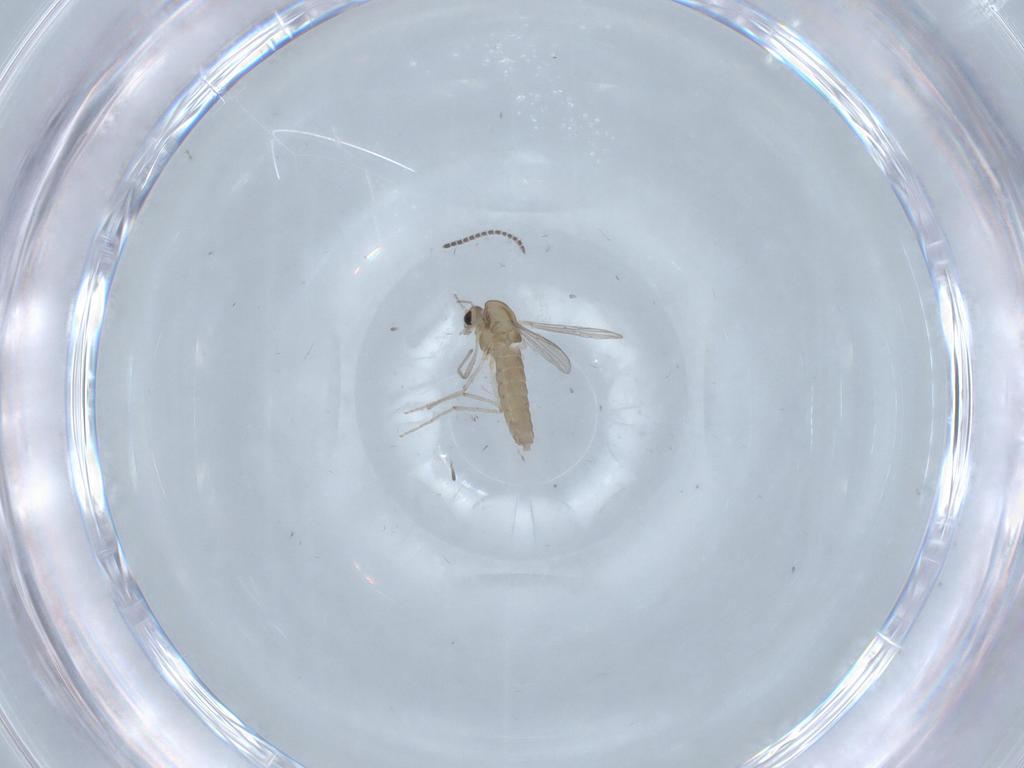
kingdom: Animalia
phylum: Arthropoda
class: Insecta
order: Diptera
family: Chironomidae
